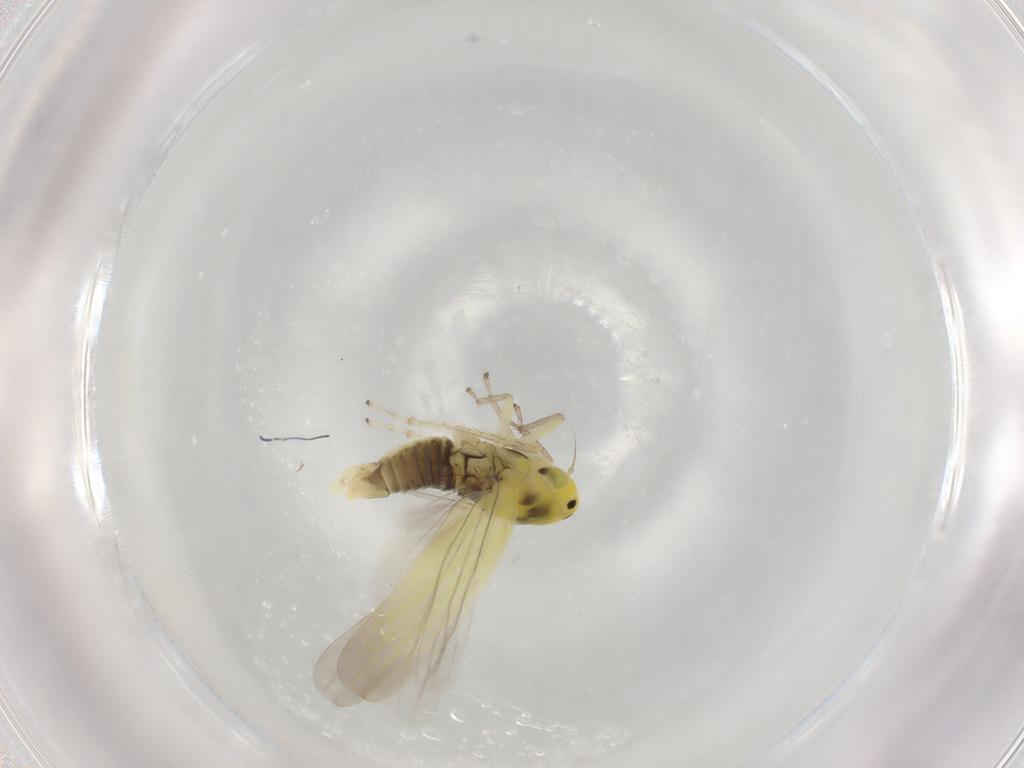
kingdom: Animalia
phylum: Arthropoda
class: Insecta
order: Hemiptera
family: Cicadellidae
